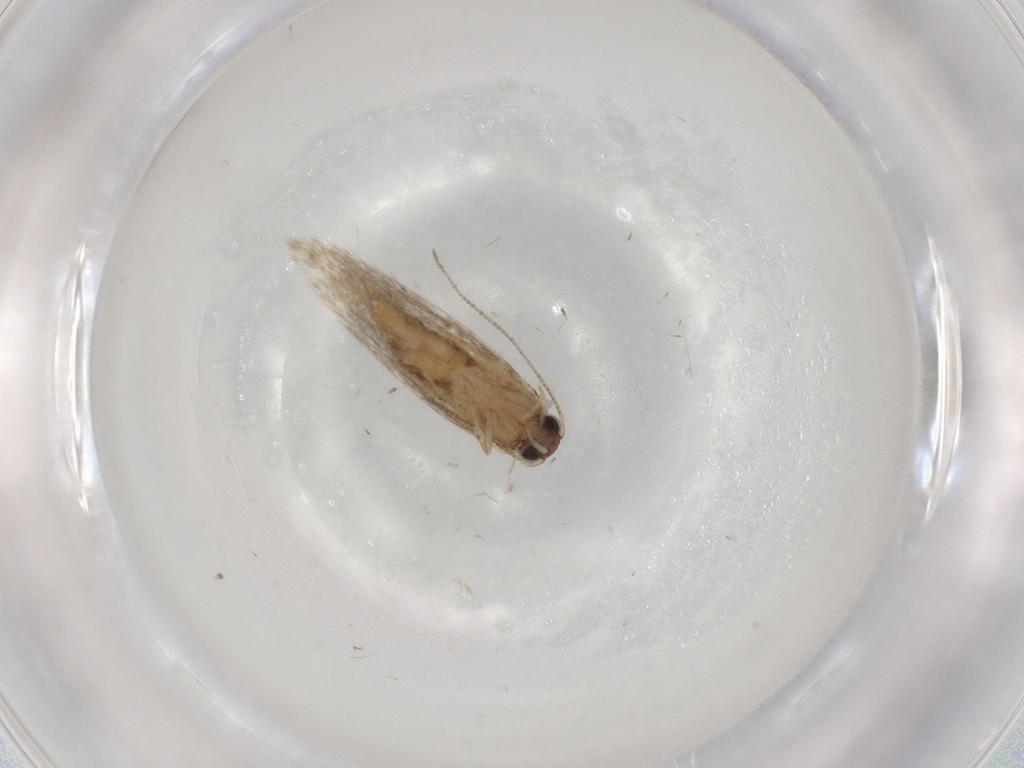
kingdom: Animalia
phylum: Arthropoda
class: Insecta
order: Lepidoptera
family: Tineidae
